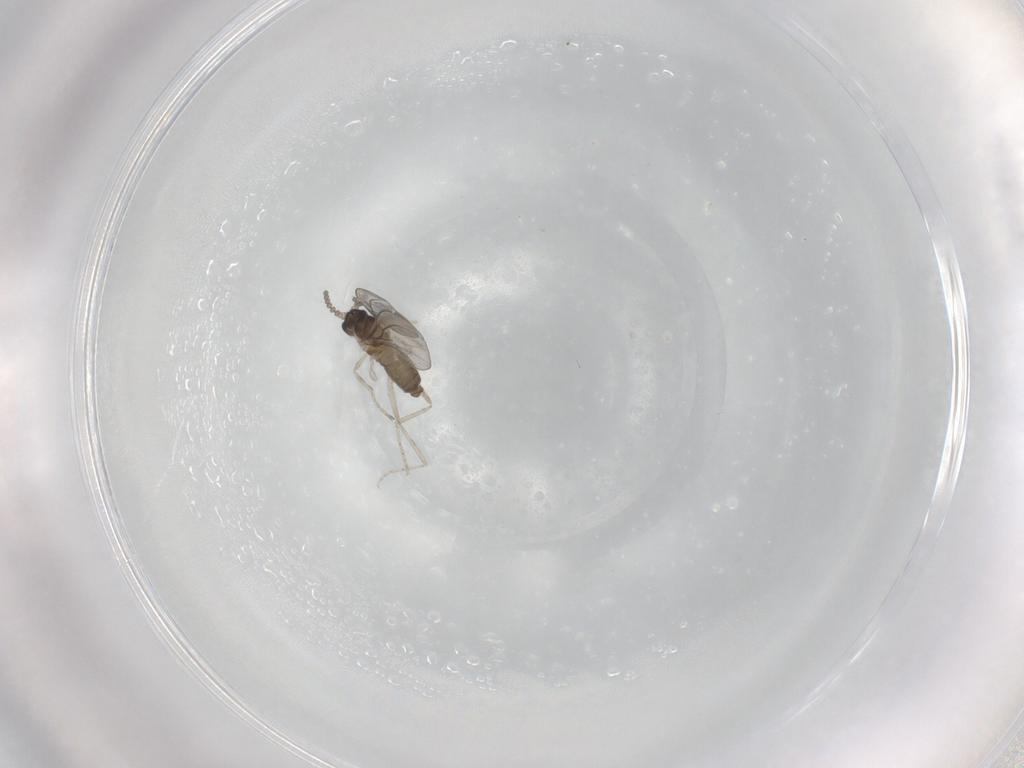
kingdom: Animalia
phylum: Arthropoda
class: Insecta
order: Diptera
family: Cecidomyiidae
